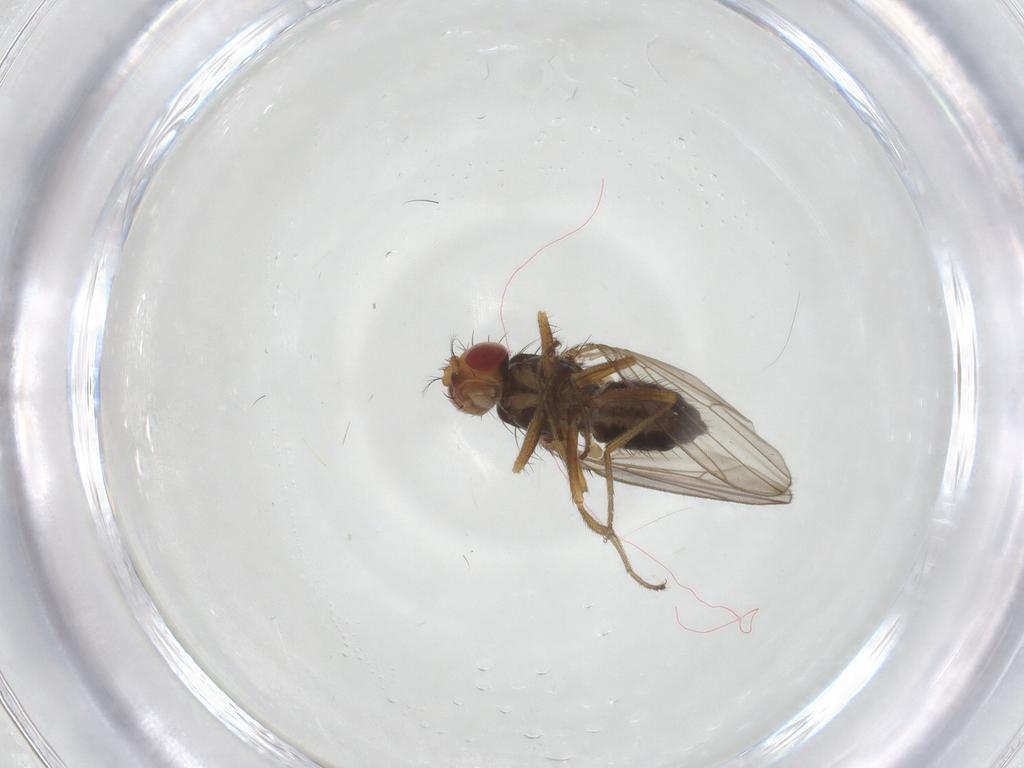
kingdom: Animalia
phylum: Arthropoda
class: Insecta
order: Diptera
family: Drosophilidae
